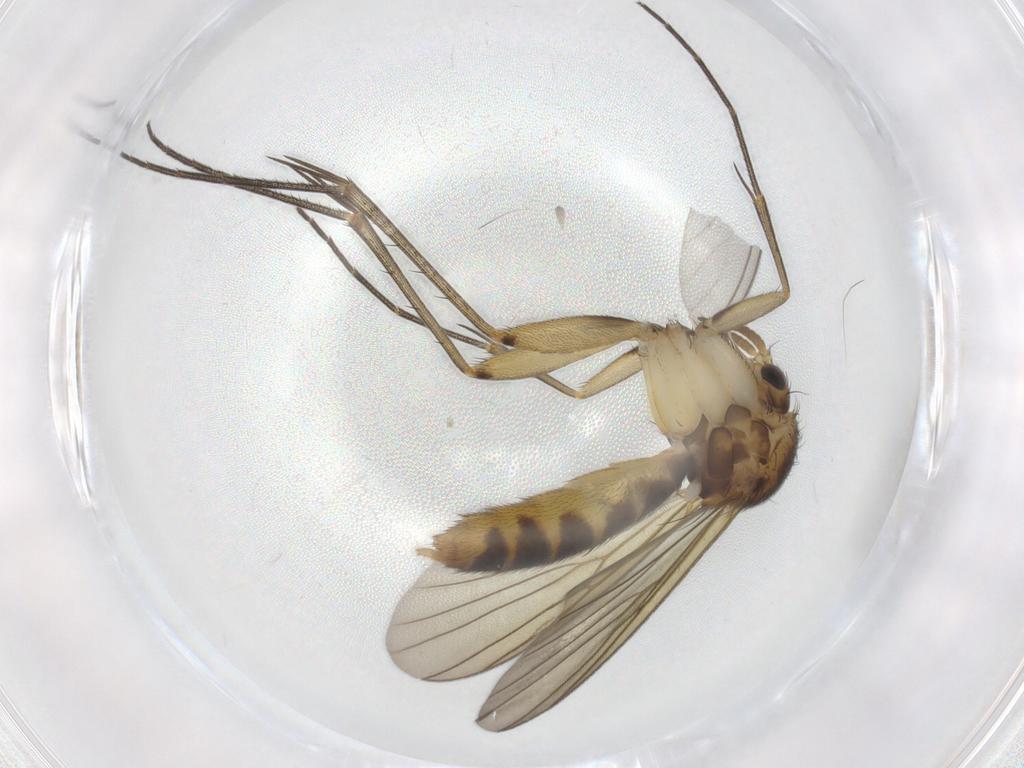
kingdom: Animalia
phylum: Arthropoda
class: Insecta
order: Diptera
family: Mycetophilidae
